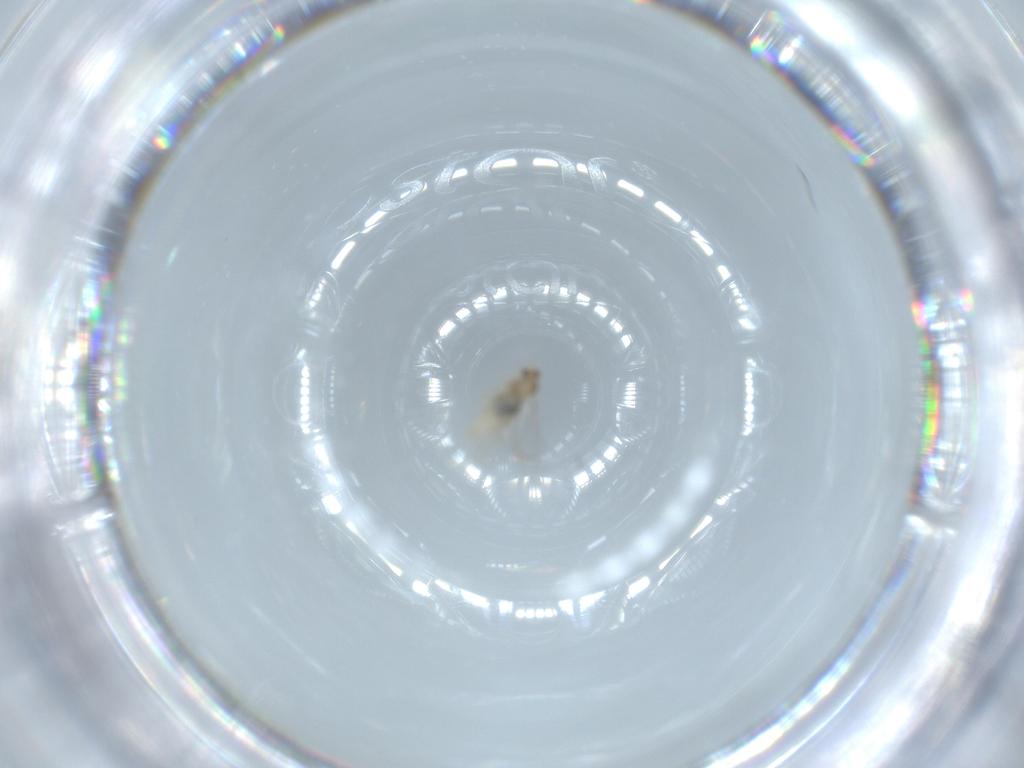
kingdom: Animalia
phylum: Arthropoda
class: Insecta
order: Diptera
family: Cecidomyiidae
